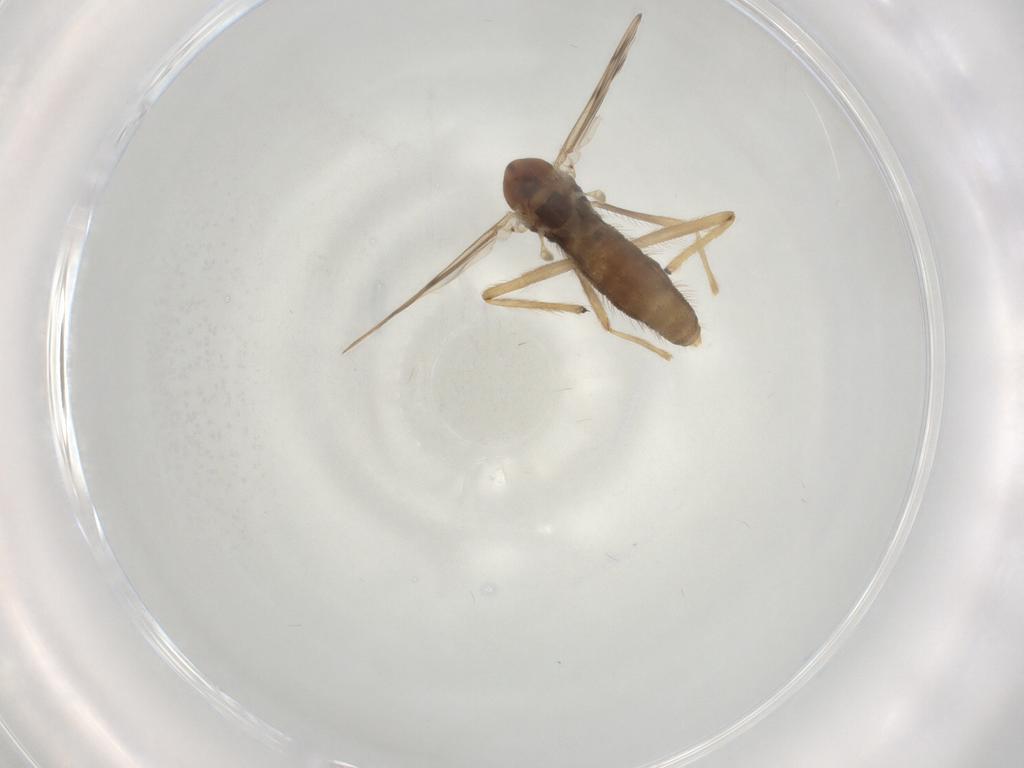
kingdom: Animalia
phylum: Arthropoda
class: Insecta
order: Diptera
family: Chironomidae
